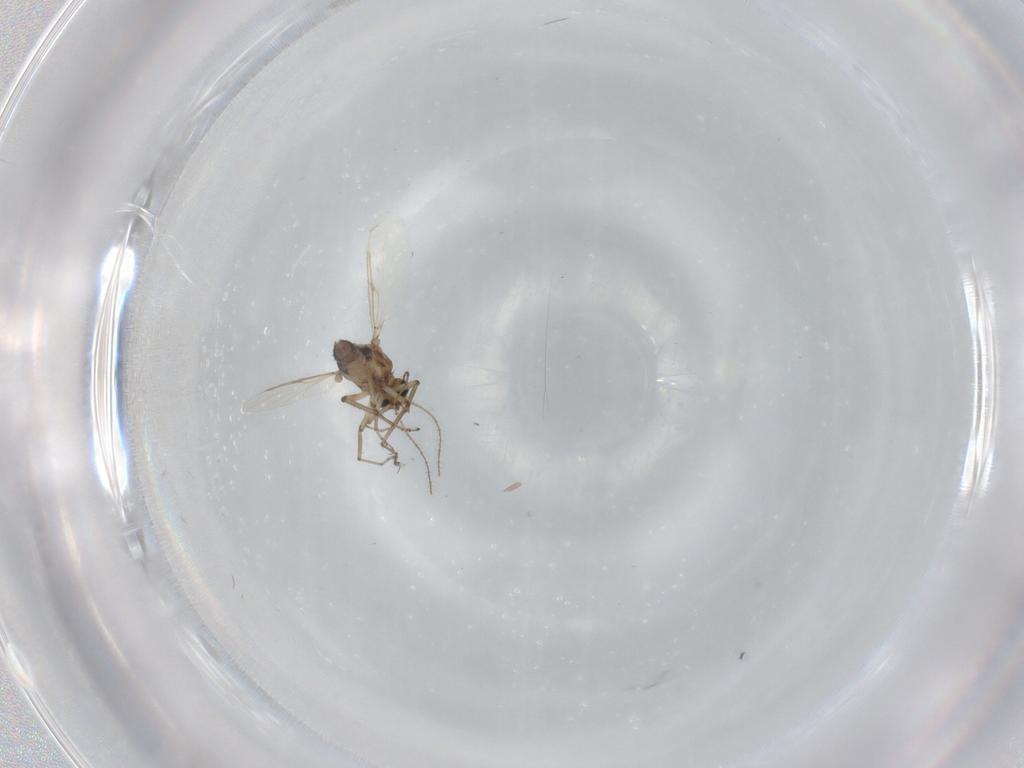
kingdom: Animalia
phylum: Arthropoda
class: Insecta
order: Diptera
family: Ceratopogonidae
